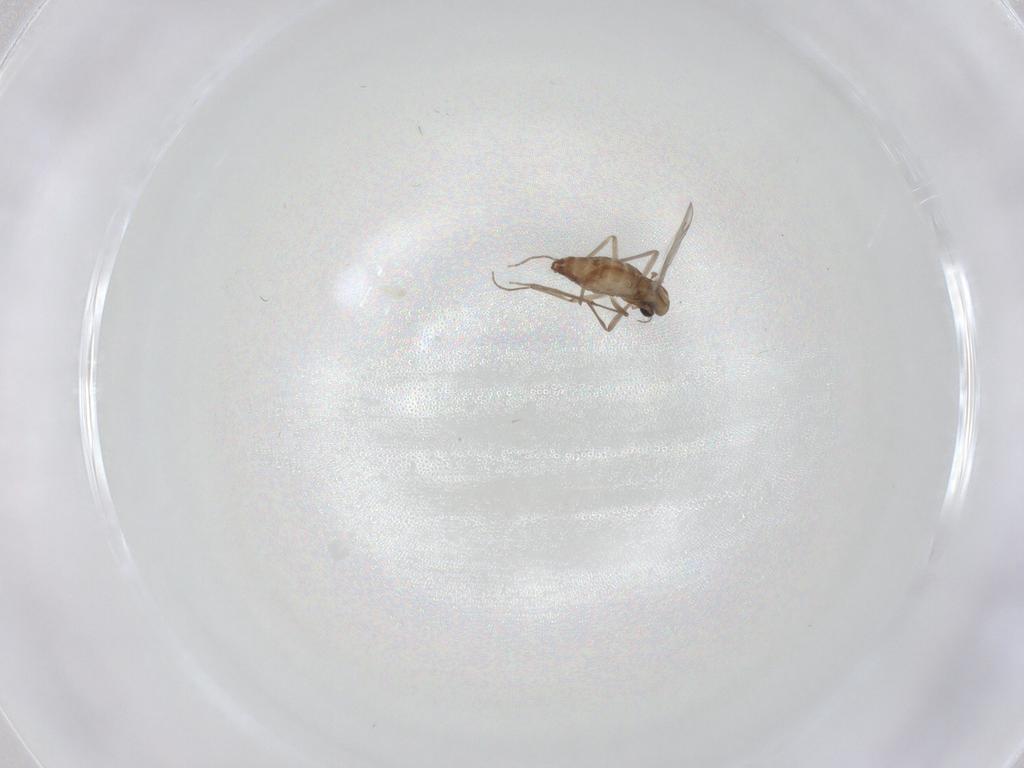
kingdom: Animalia
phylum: Arthropoda
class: Insecta
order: Diptera
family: Chironomidae
